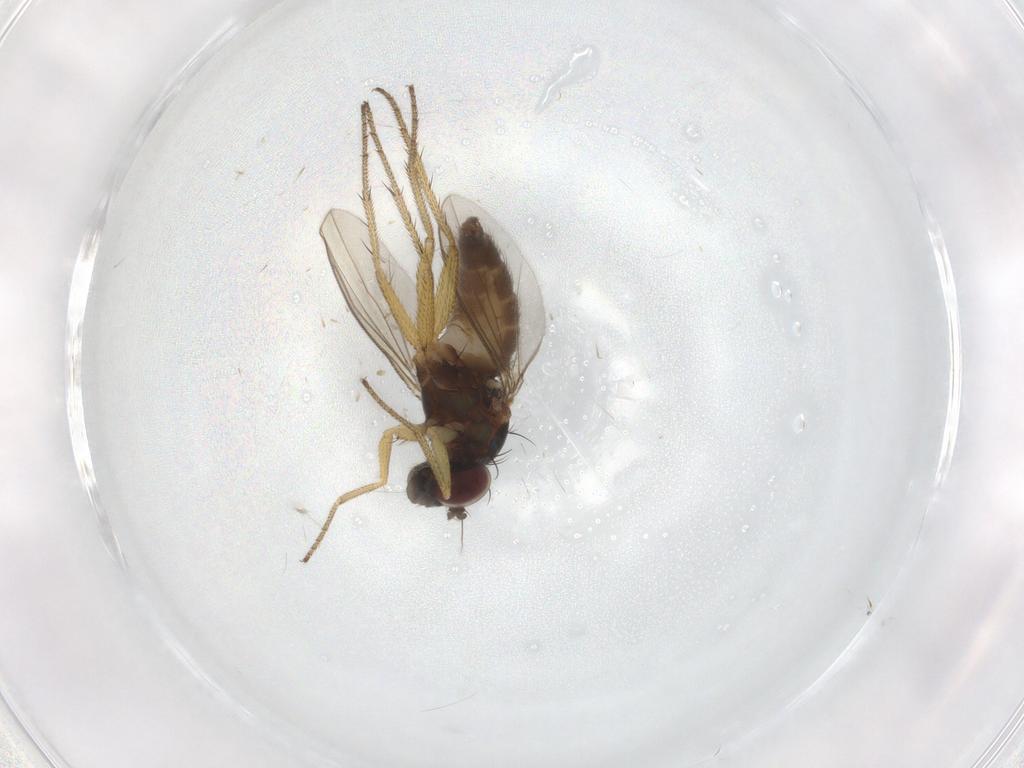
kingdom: Animalia
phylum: Arthropoda
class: Insecta
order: Diptera
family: Dolichopodidae
